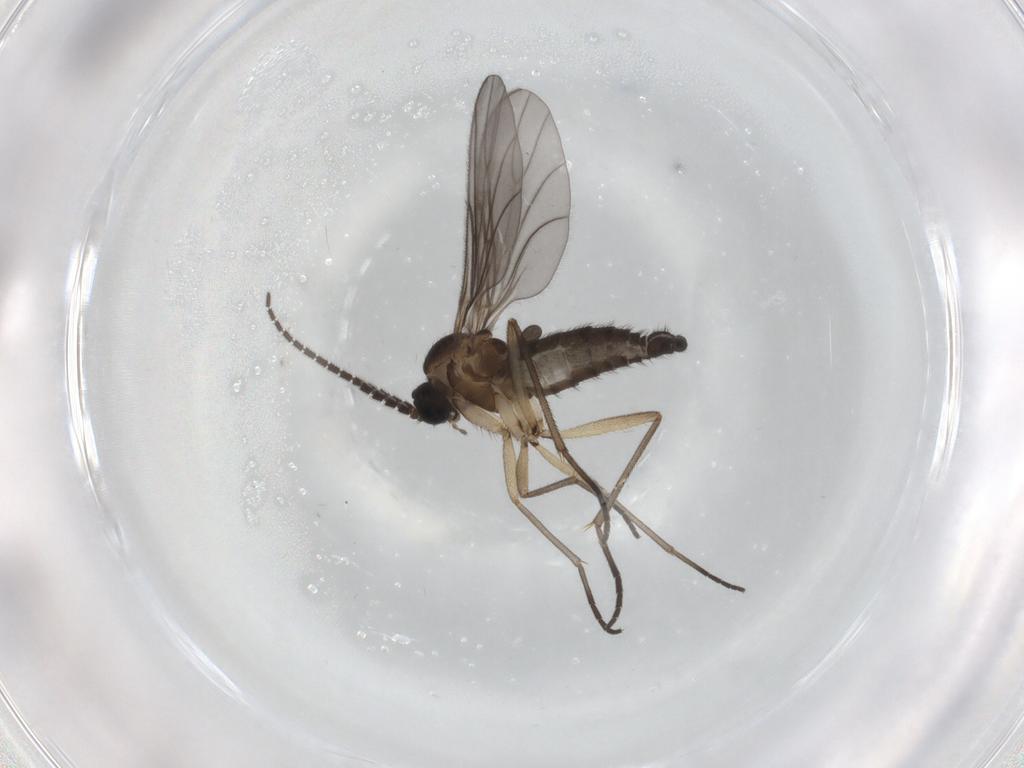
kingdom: Animalia
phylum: Arthropoda
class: Insecta
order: Diptera
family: Sciaridae
